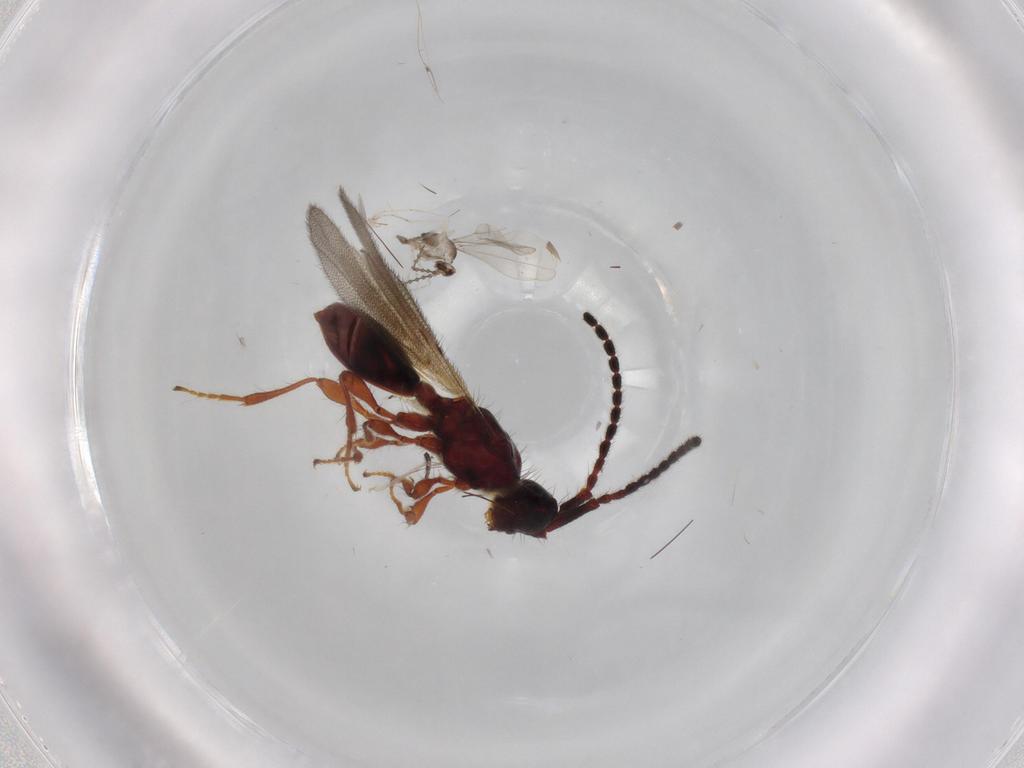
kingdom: Animalia
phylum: Arthropoda
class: Insecta
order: Hymenoptera
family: Diapriidae
